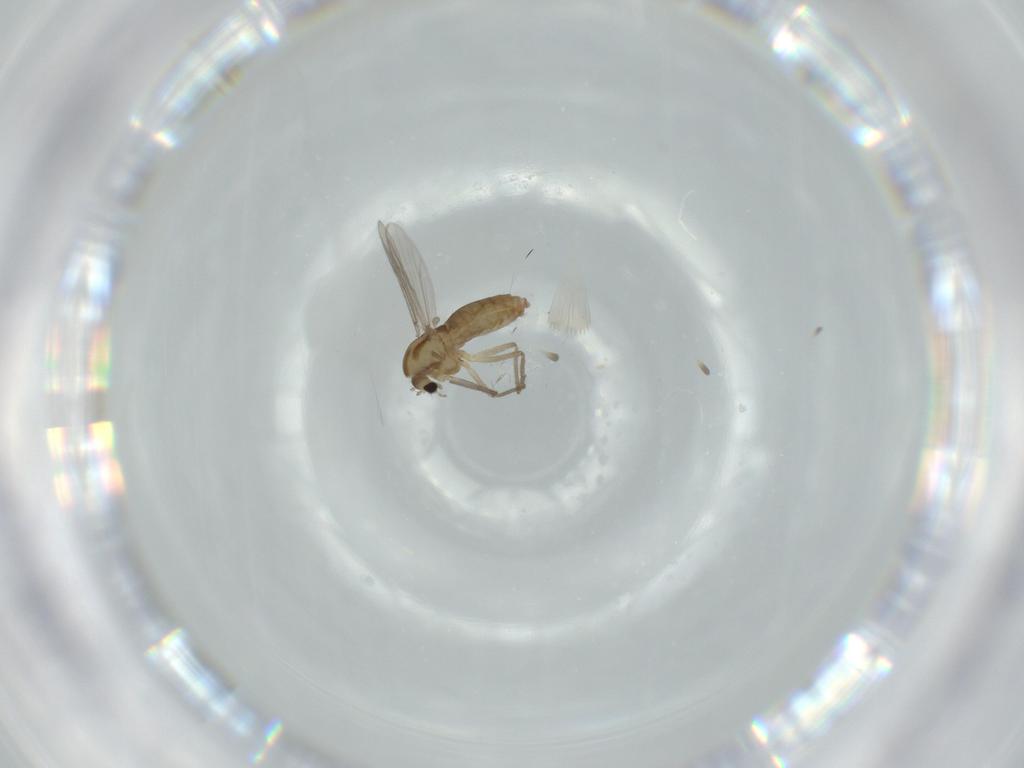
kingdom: Animalia
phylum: Arthropoda
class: Insecta
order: Diptera
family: Chironomidae
